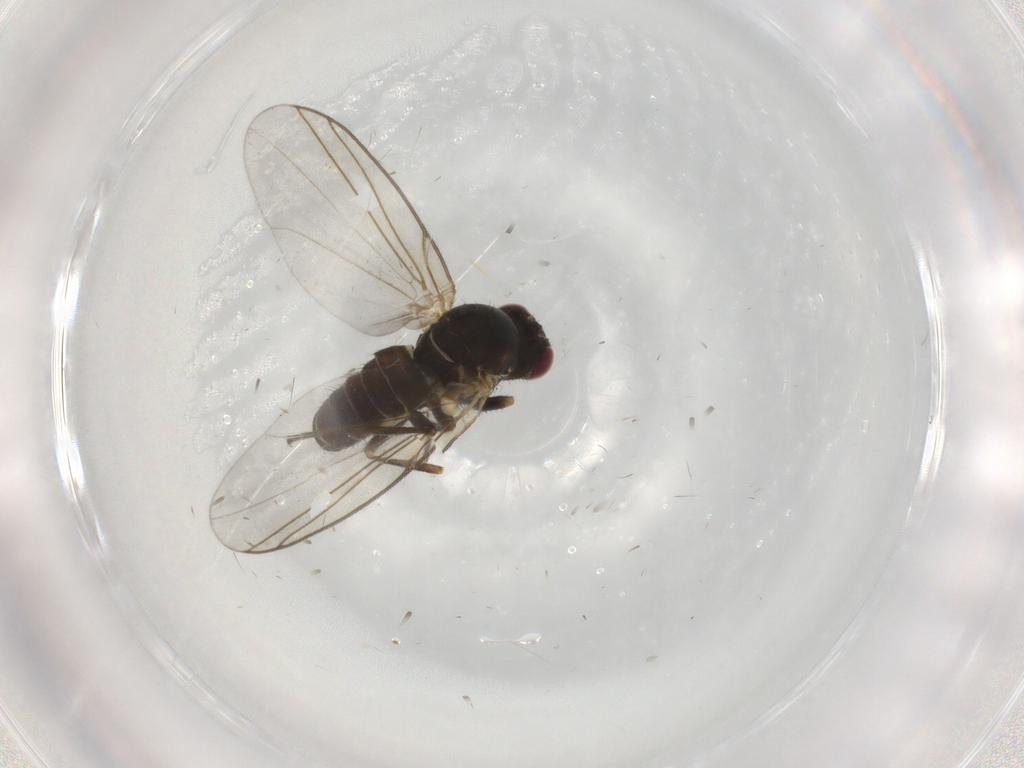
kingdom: Animalia
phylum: Arthropoda
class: Insecta
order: Diptera
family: Agromyzidae
